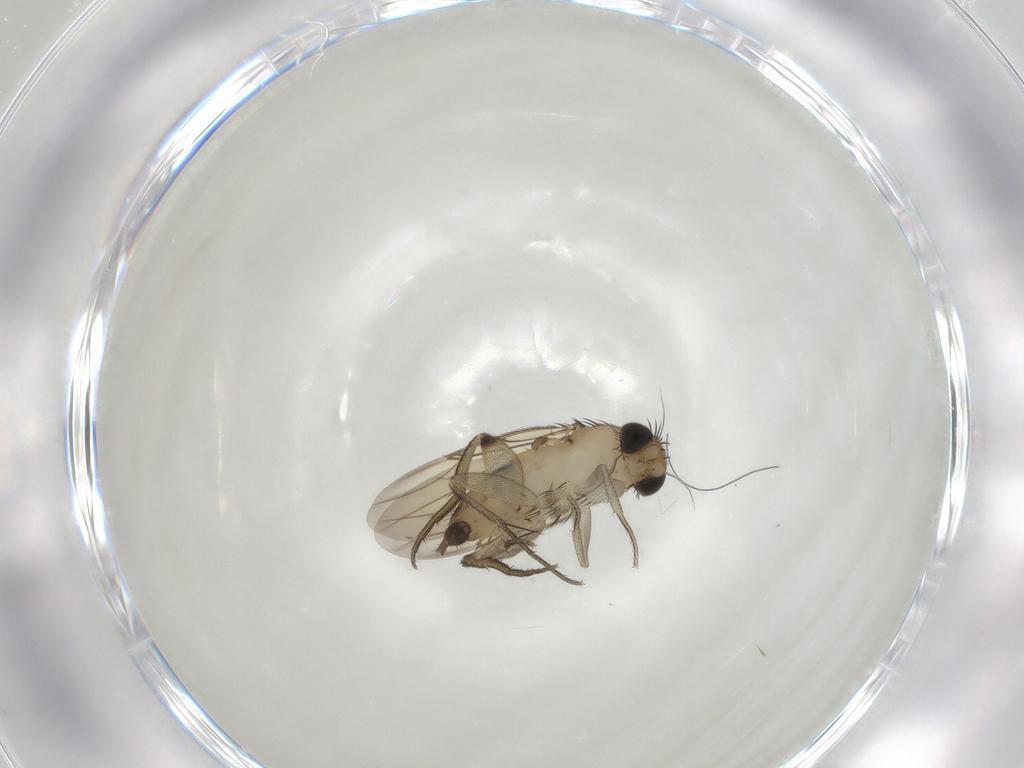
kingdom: Animalia
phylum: Arthropoda
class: Insecta
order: Diptera
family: Phoridae
